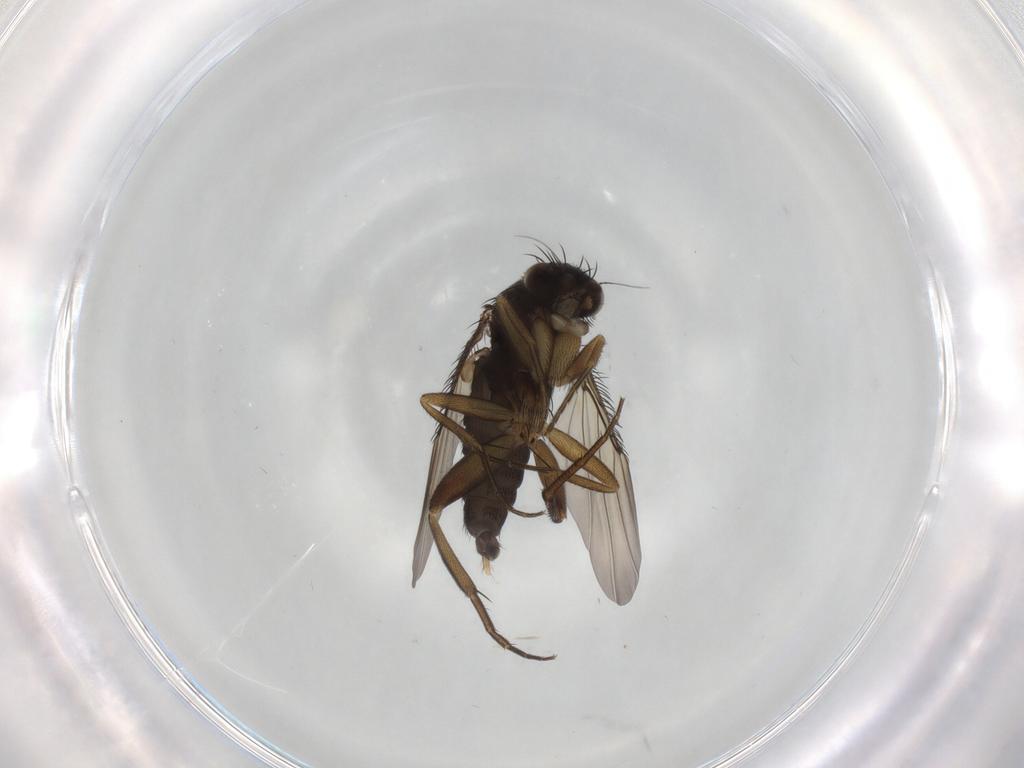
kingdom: Animalia
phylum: Arthropoda
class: Insecta
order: Diptera
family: Phoridae
